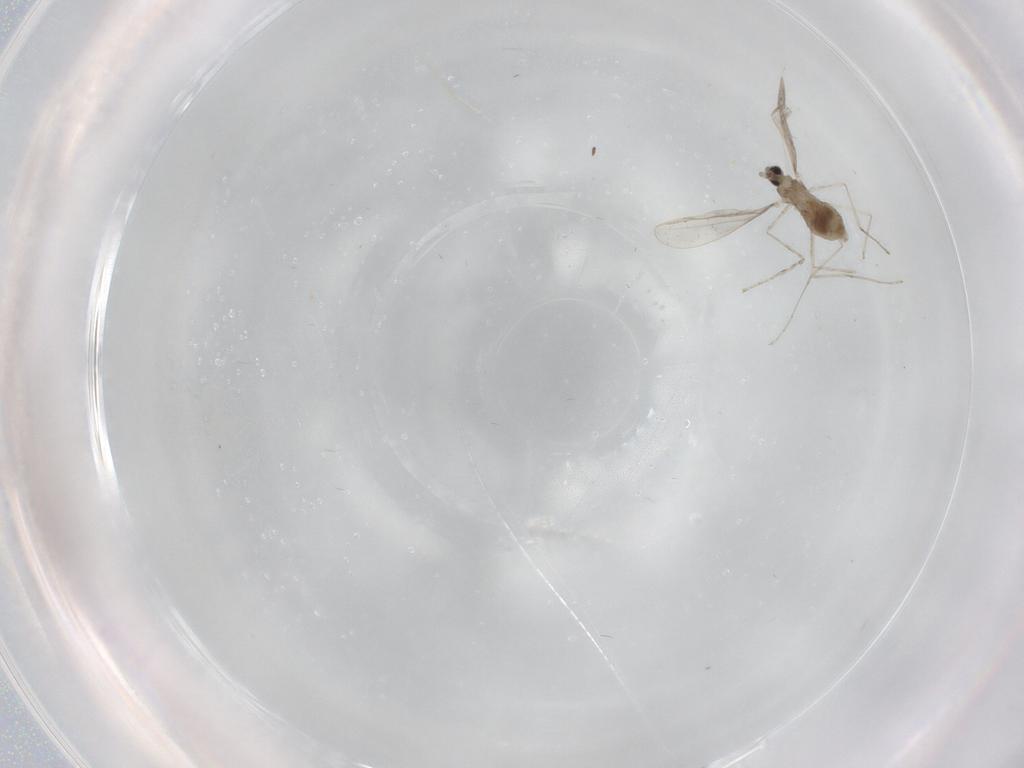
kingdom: Animalia
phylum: Arthropoda
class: Insecta
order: Diptera
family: Cecidomyiidae
